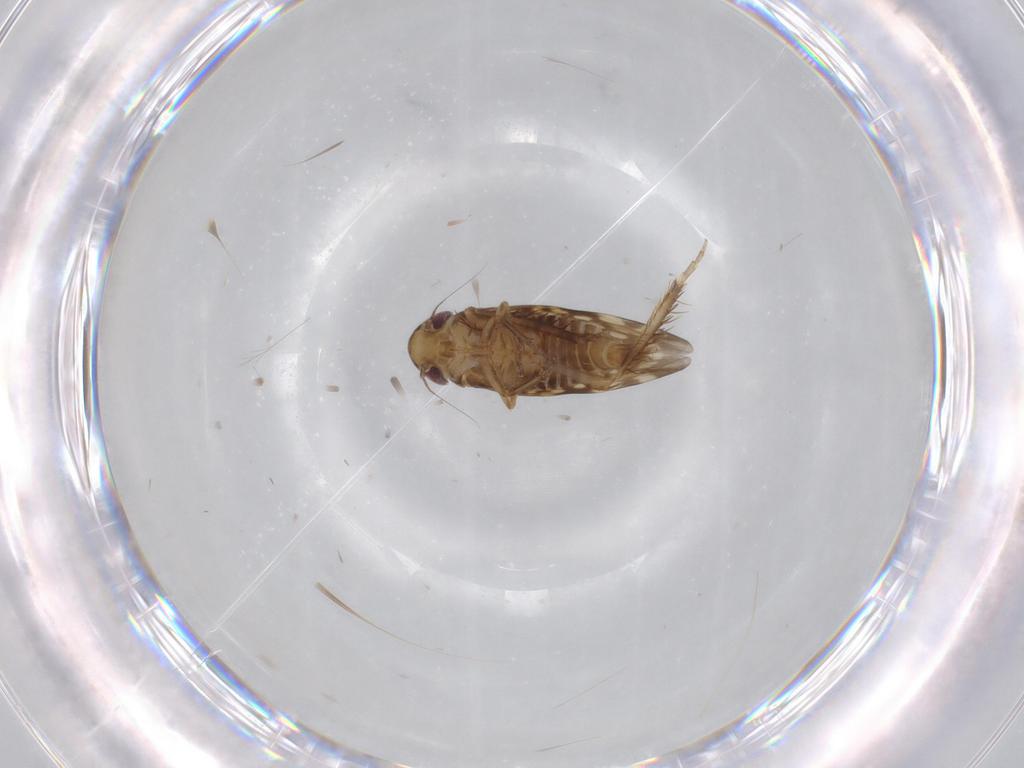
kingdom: Animalia
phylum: Arthropoda
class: Insecta
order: Hemiptera
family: Cicadellidae
